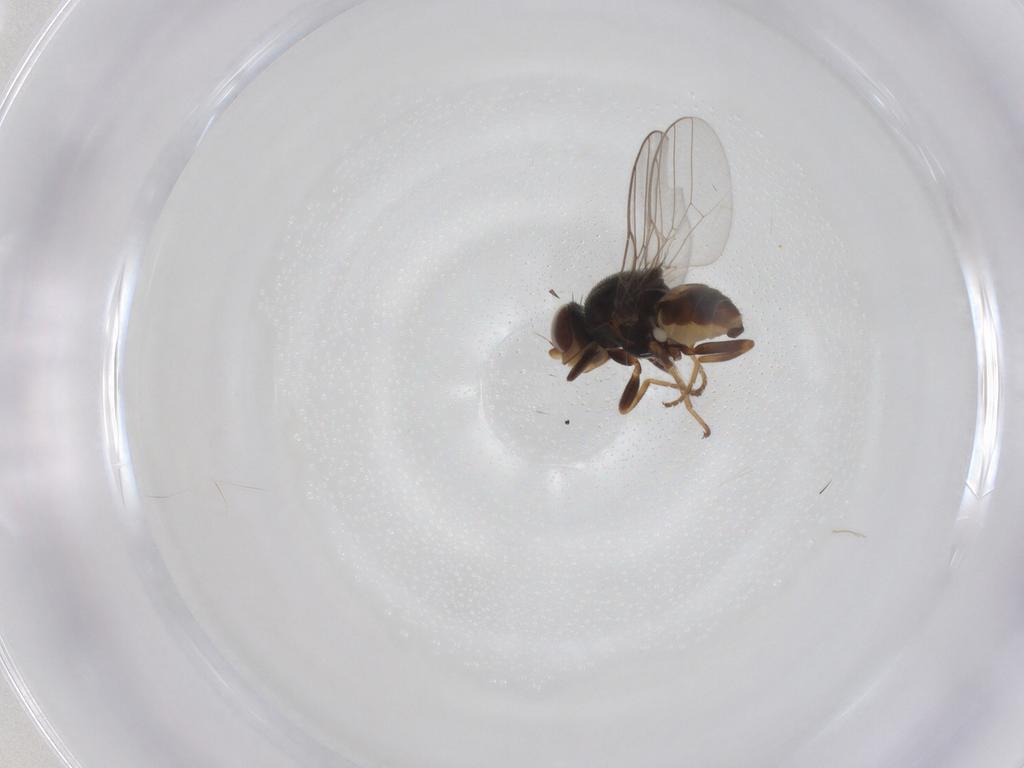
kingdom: Animalia
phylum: Arthropoda
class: Insecta
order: Diptera
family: Chloropidae
